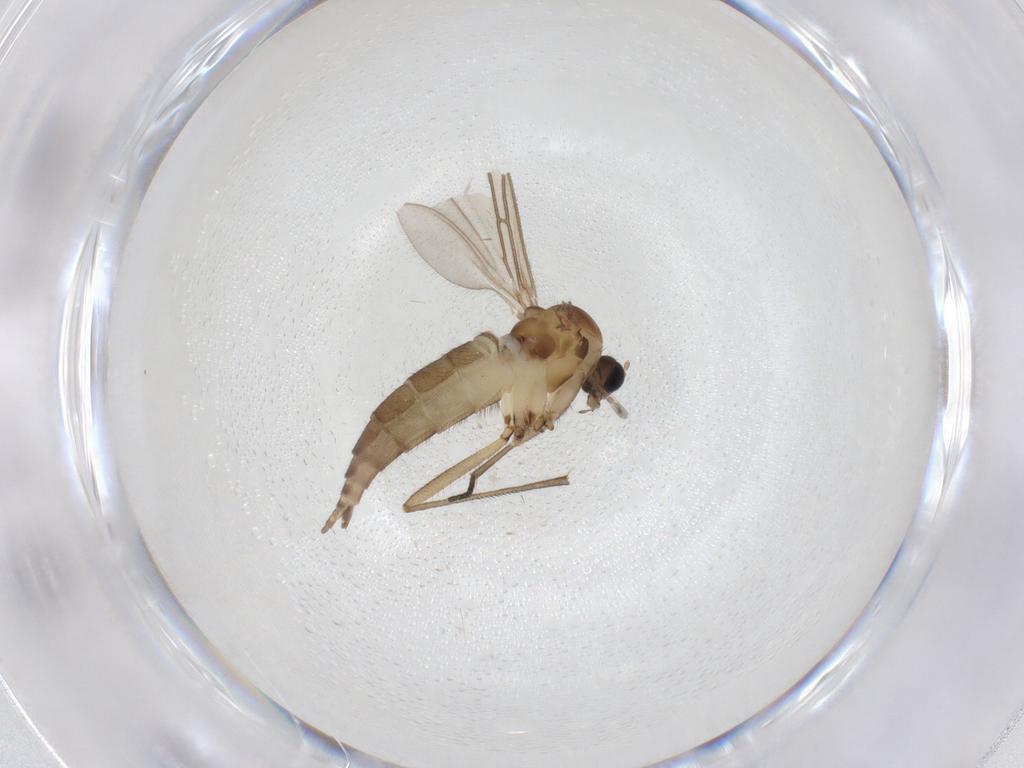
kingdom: Animalia
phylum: Arthropoda
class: Insecta
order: Diptera
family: Sciaridae
